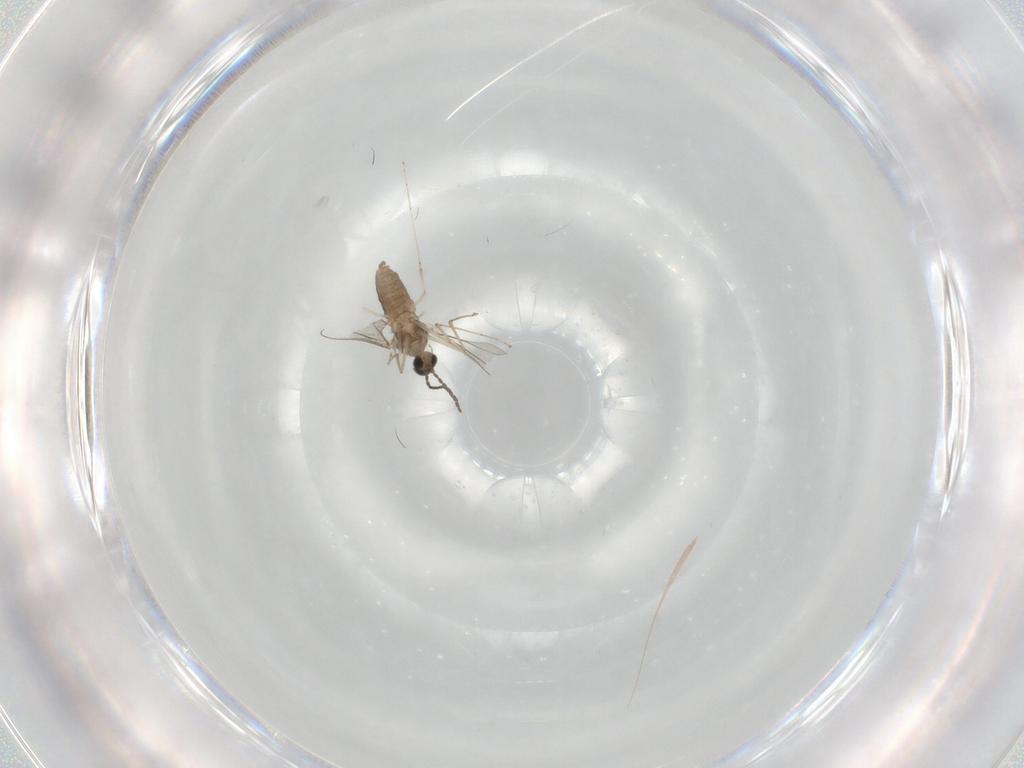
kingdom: Animalia
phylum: Arthropoda
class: Insecta
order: Diptera
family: Cecidomyiidae
